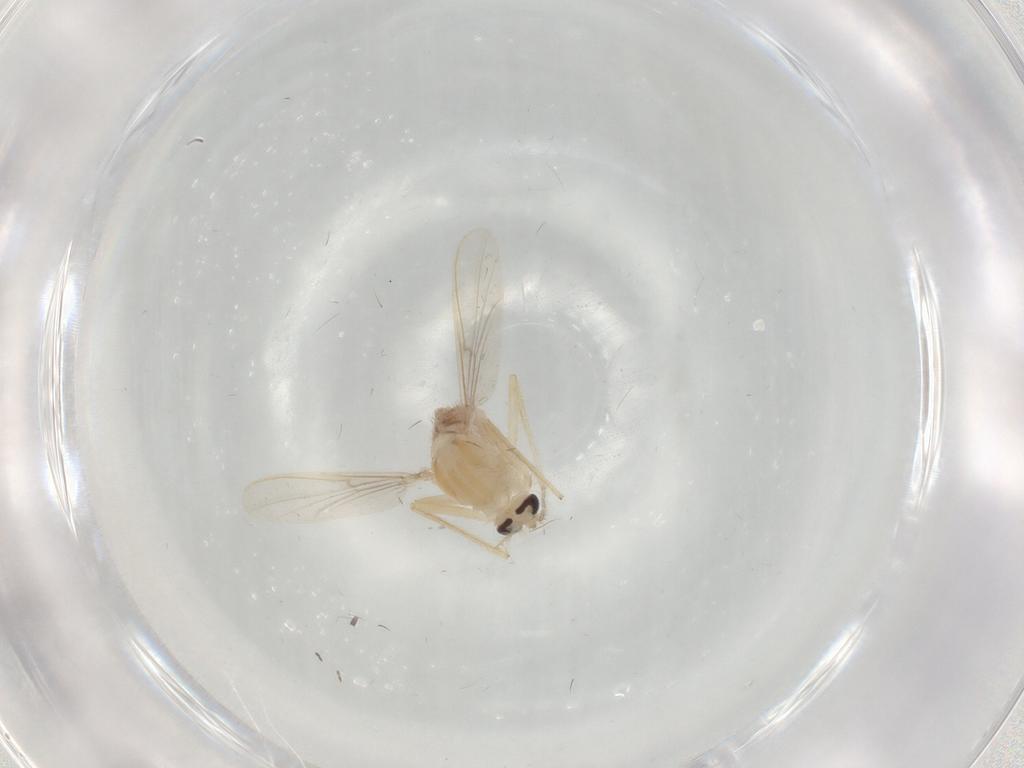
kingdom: Animalia
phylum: Arthropoda
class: Insecta
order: Diptera
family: Chironomidae
